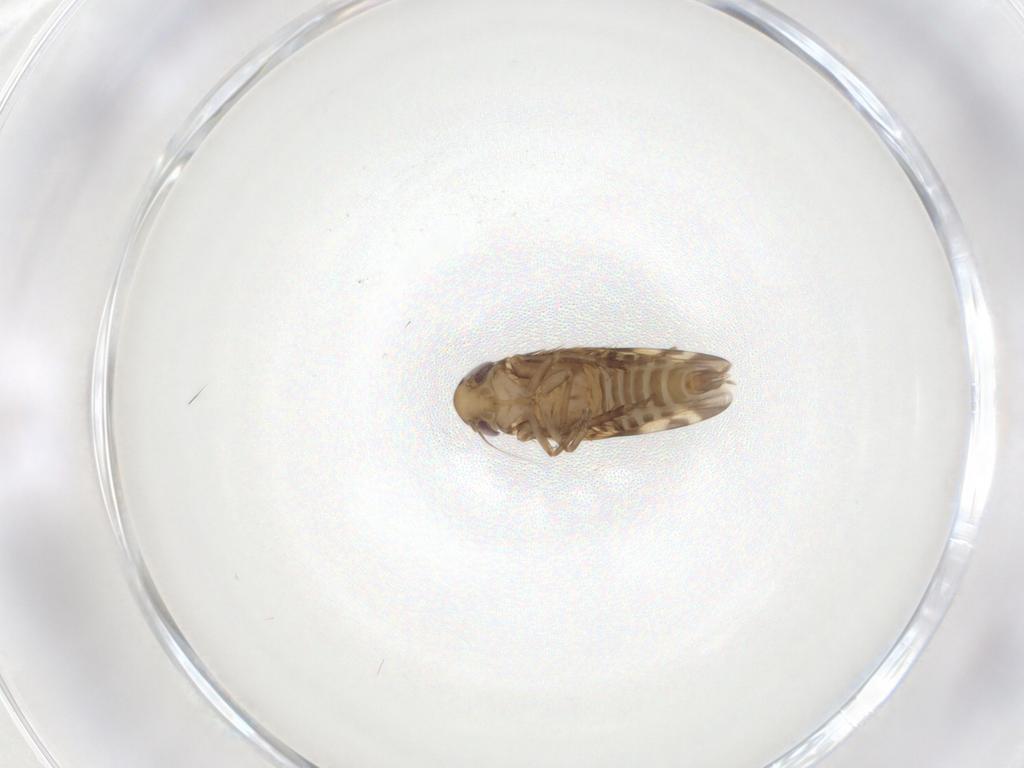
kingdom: Animalia
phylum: Arthropoda
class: Insecta
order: Hemiptera
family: Cicadellidae
